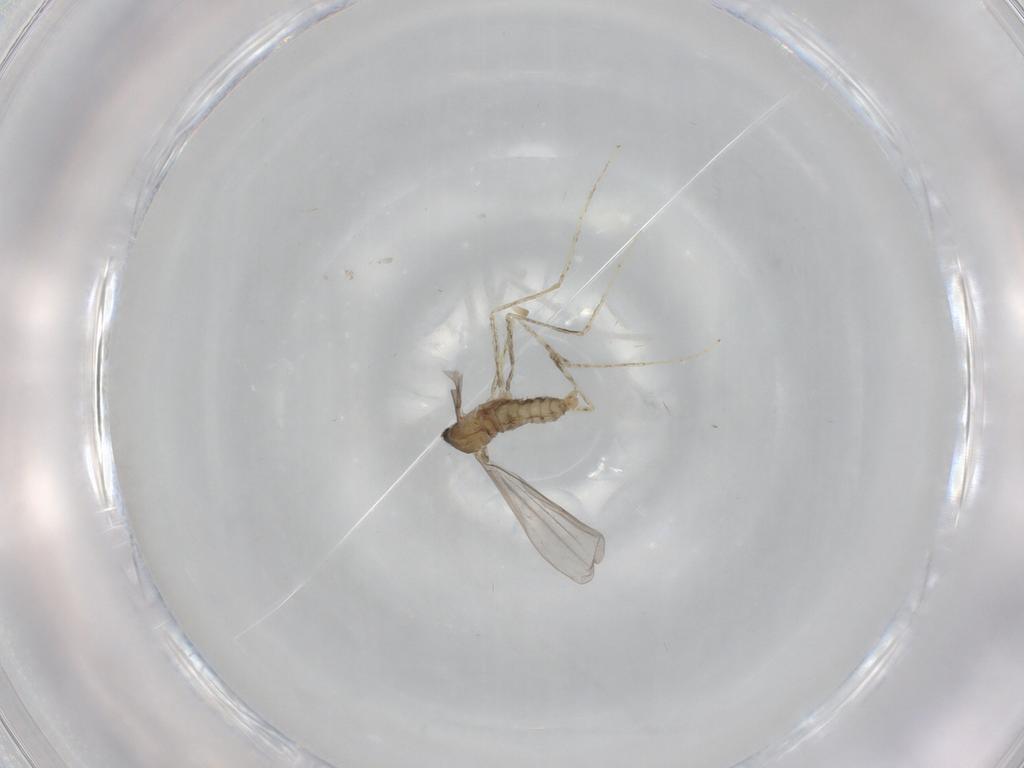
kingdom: Animalia
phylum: Arthropoda
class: Insecta
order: Diptera
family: Cecidomyiidae
